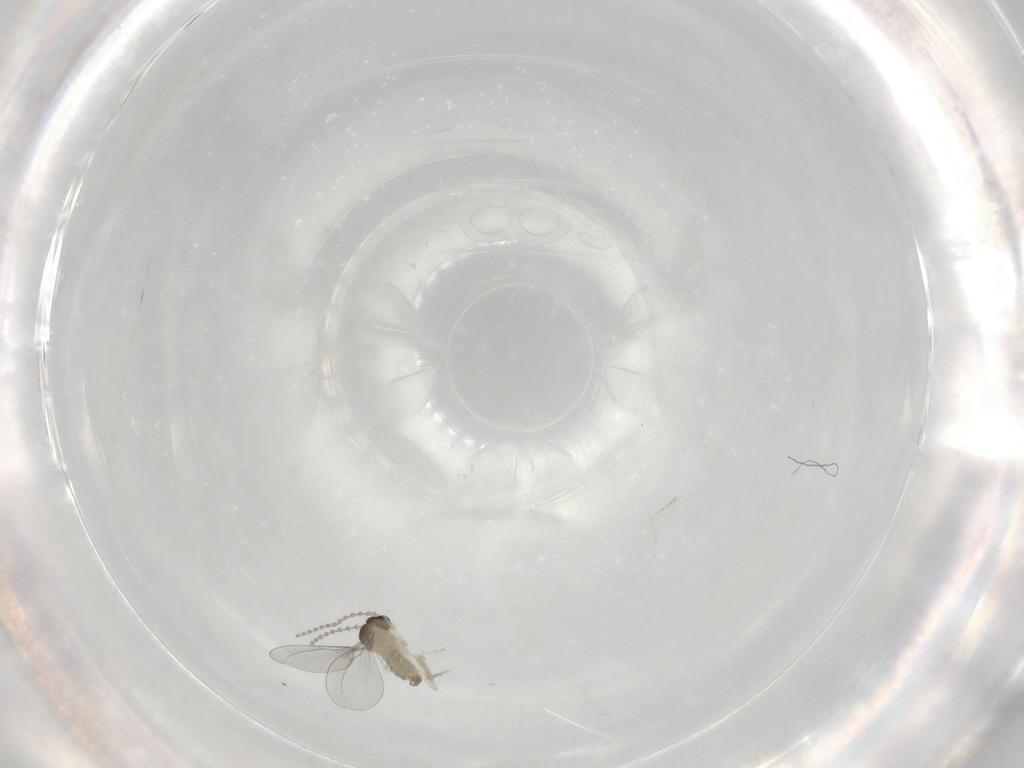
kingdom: Animalia
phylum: Arthropoda
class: Insecta
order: Diptera
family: Cecidomyiidae
